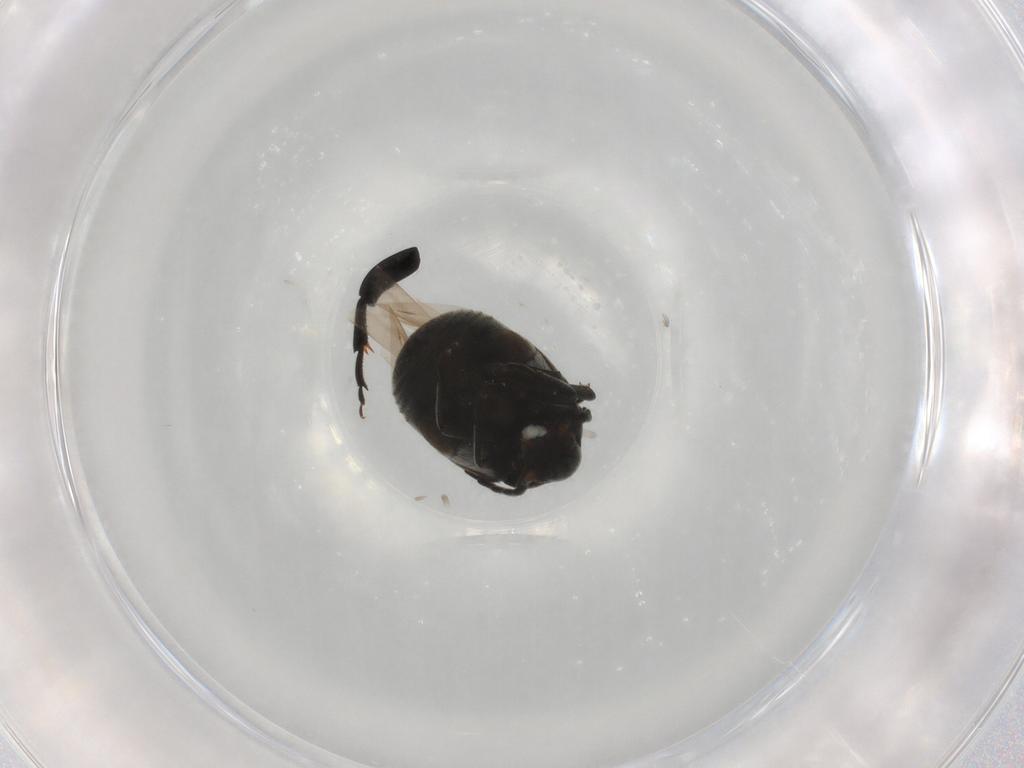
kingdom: Animalia
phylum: Arthropoda
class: Insecta
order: Coleoptera
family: Chrysomelidae
